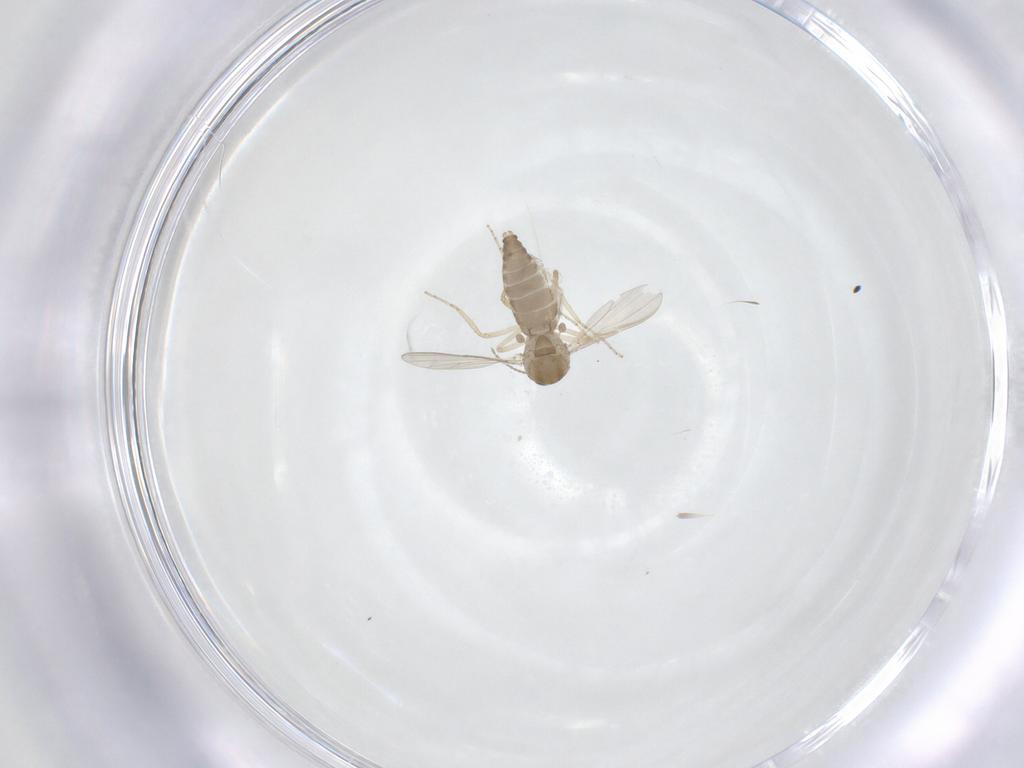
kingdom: Animalia
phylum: Arthropoda
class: Insecta
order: Diptera
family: Ceratopogonidae
